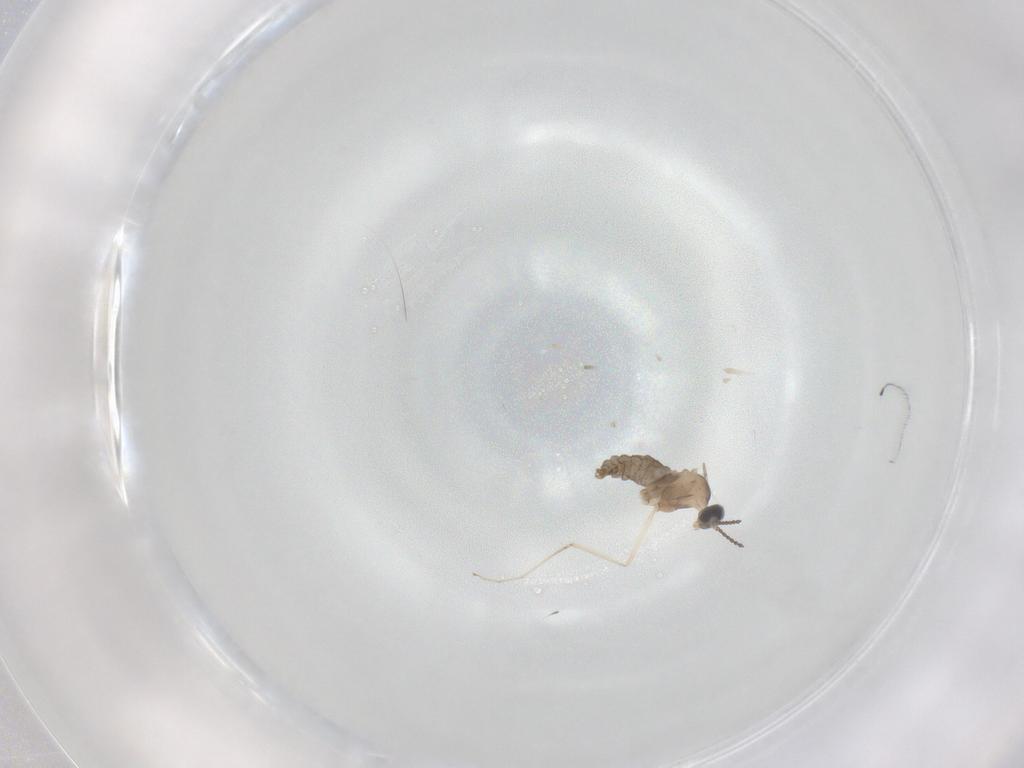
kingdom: Animalia
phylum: Arthropoda
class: Insecta
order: Diptera
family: Cecidomyiidae
